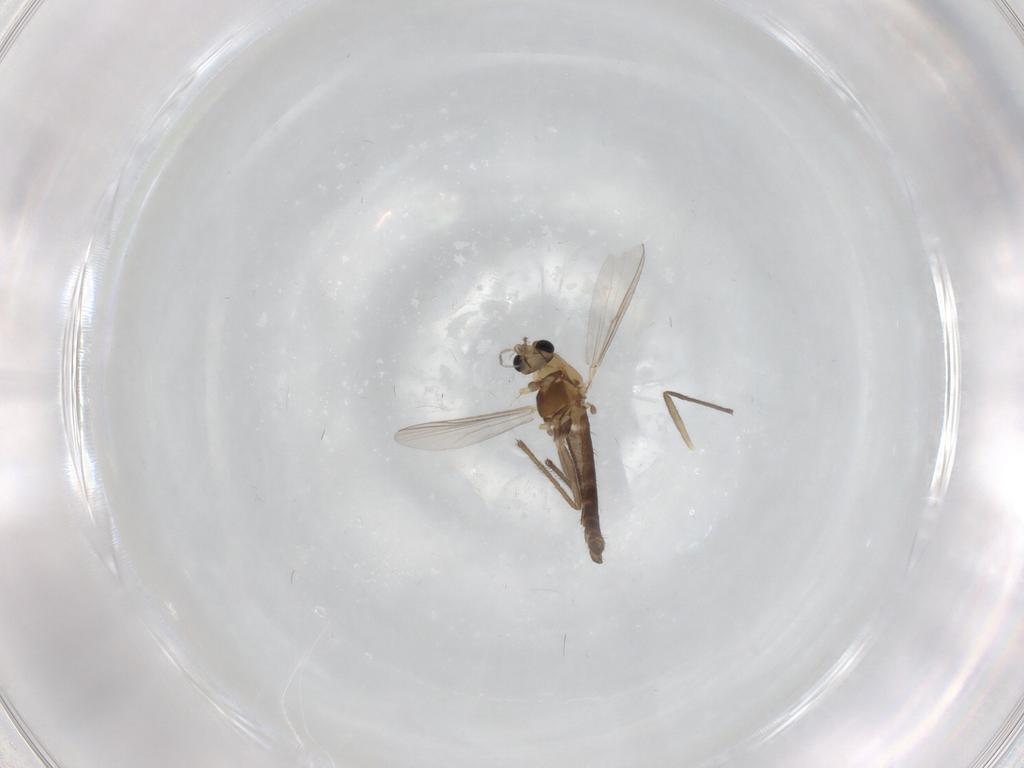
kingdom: Animalia
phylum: Arthropoda
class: Insecta
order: Diptera
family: Chironomidae
